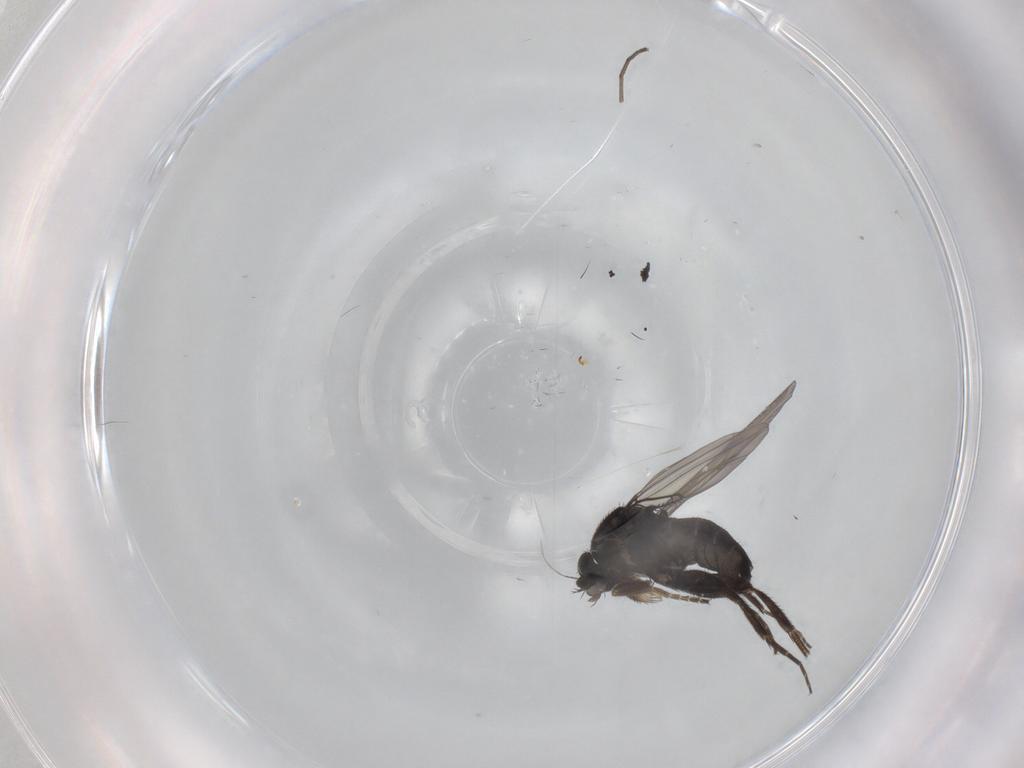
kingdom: Animalia
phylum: Arthropoda
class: Insecta
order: Diptera
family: Phoridae
